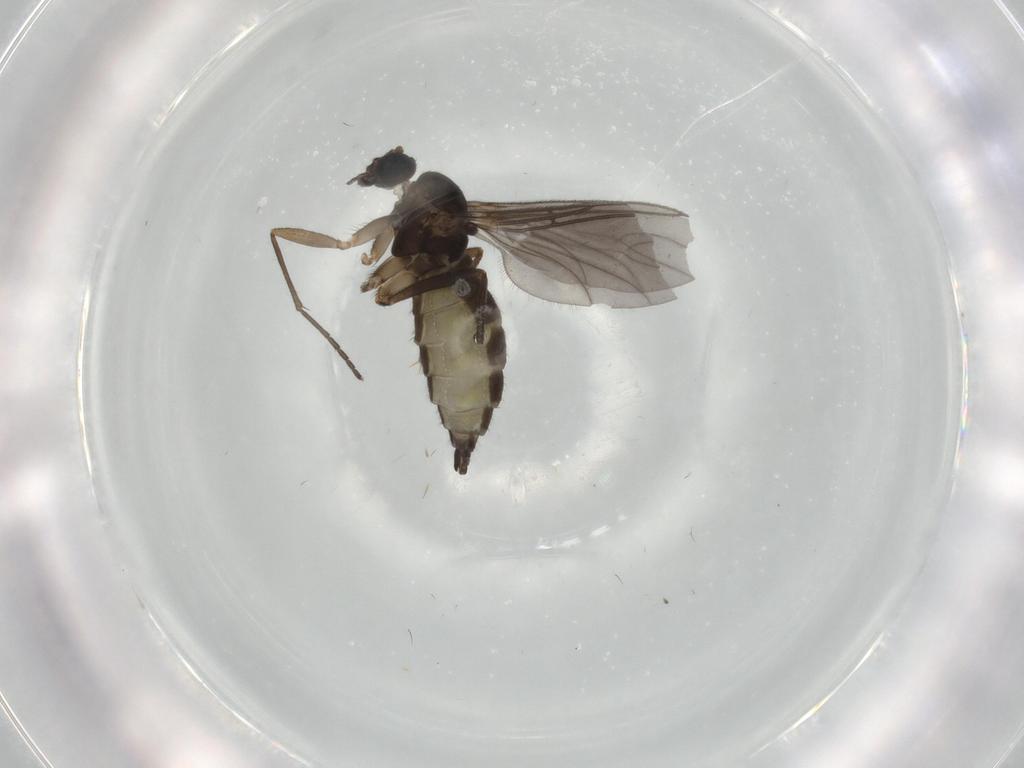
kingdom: Animalia
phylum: Arthropoda
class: Insecta
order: Diptera
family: Sciaridae
